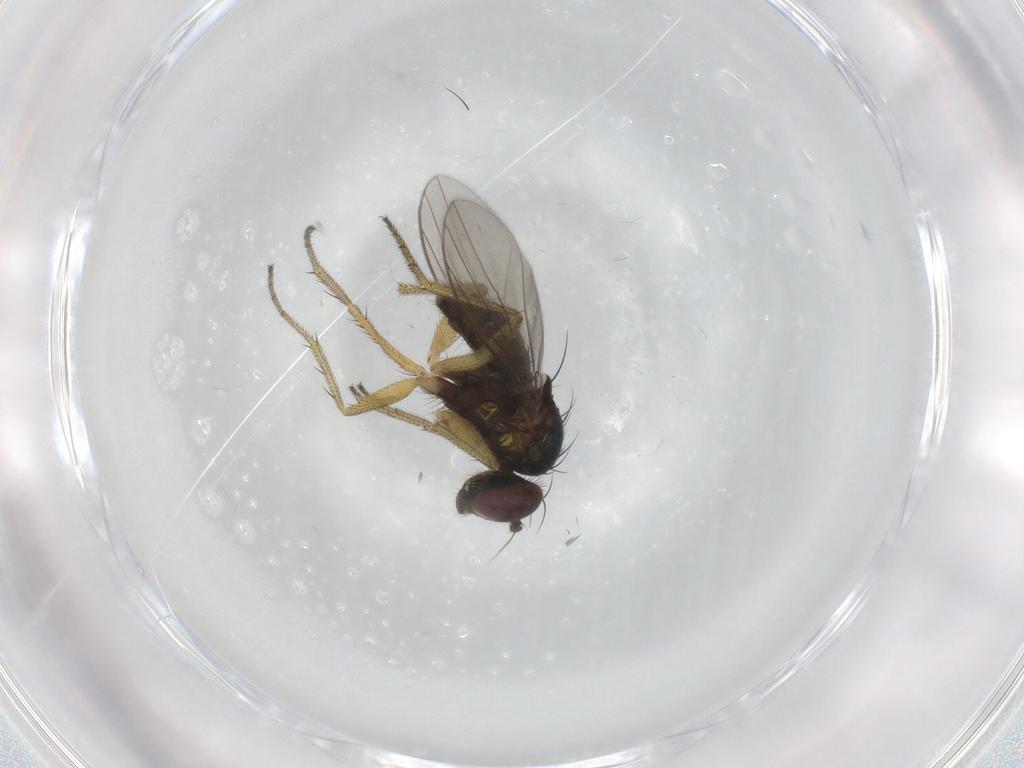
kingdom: Animalia
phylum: Arthropoda
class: Insecta
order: Diptera
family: Dolichopodidae
